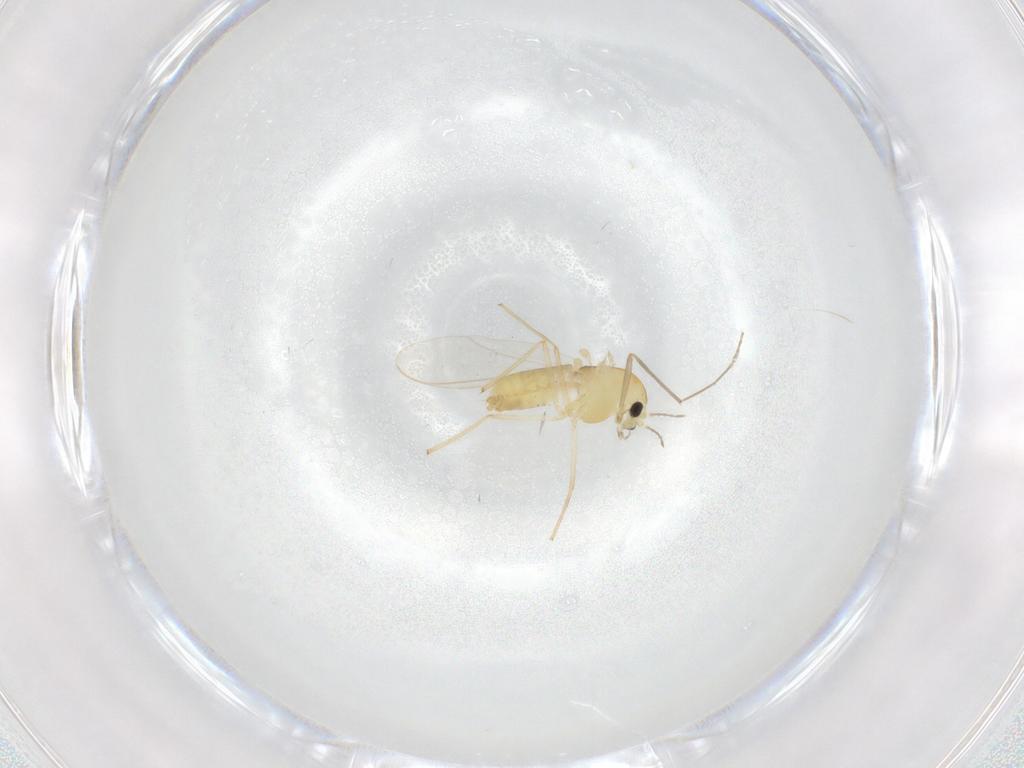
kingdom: Animalia
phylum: Arthropoda
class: Insecta
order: Diptera
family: Chironomidae
